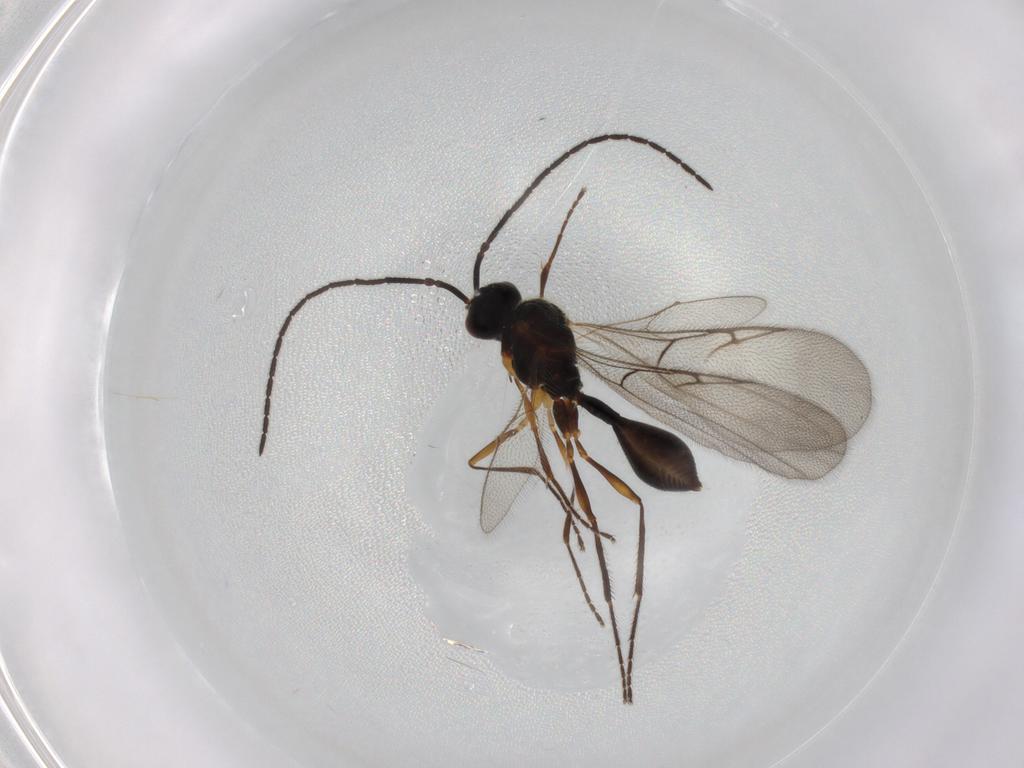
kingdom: Animalia
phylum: Arthropoda
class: Insecta
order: Hymenoptera
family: Diapriidae
